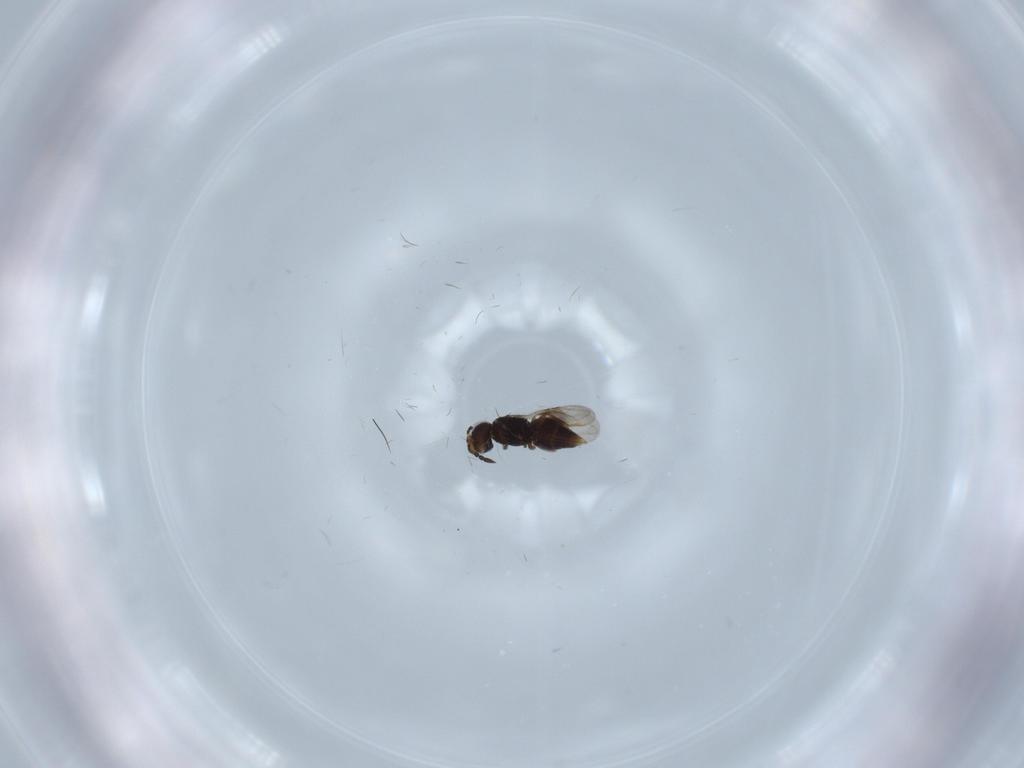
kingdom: Animalia
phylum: Arthropoda
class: Insecta
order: Hymenoptera
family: Ceraphronidae
